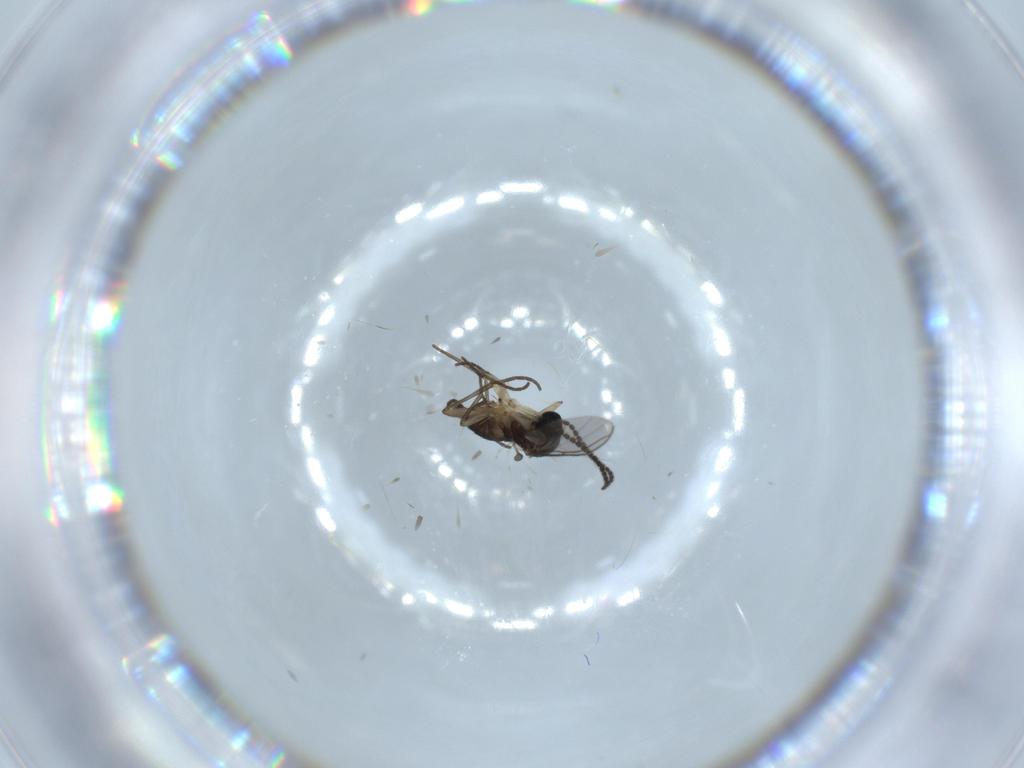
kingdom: Animalia
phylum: Arthropoda
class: Insecta
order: Diptera
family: Sciaridae
